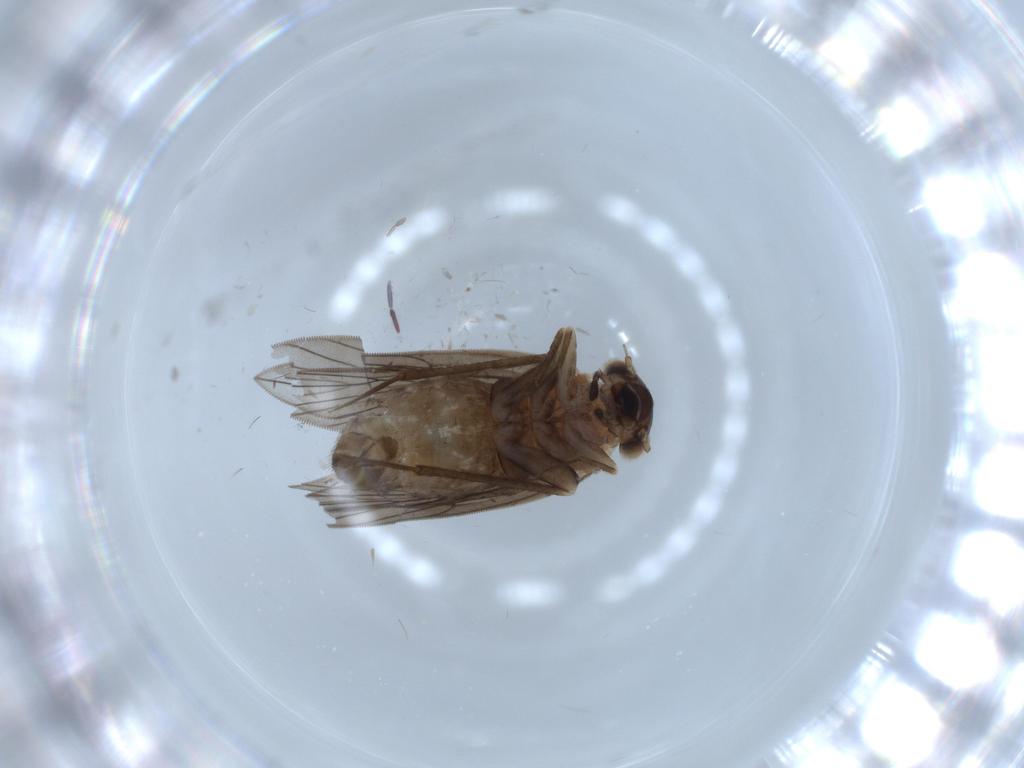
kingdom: Animalia
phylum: Arthropoda
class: Insecta
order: Psocodea
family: Lepidopsocidae
